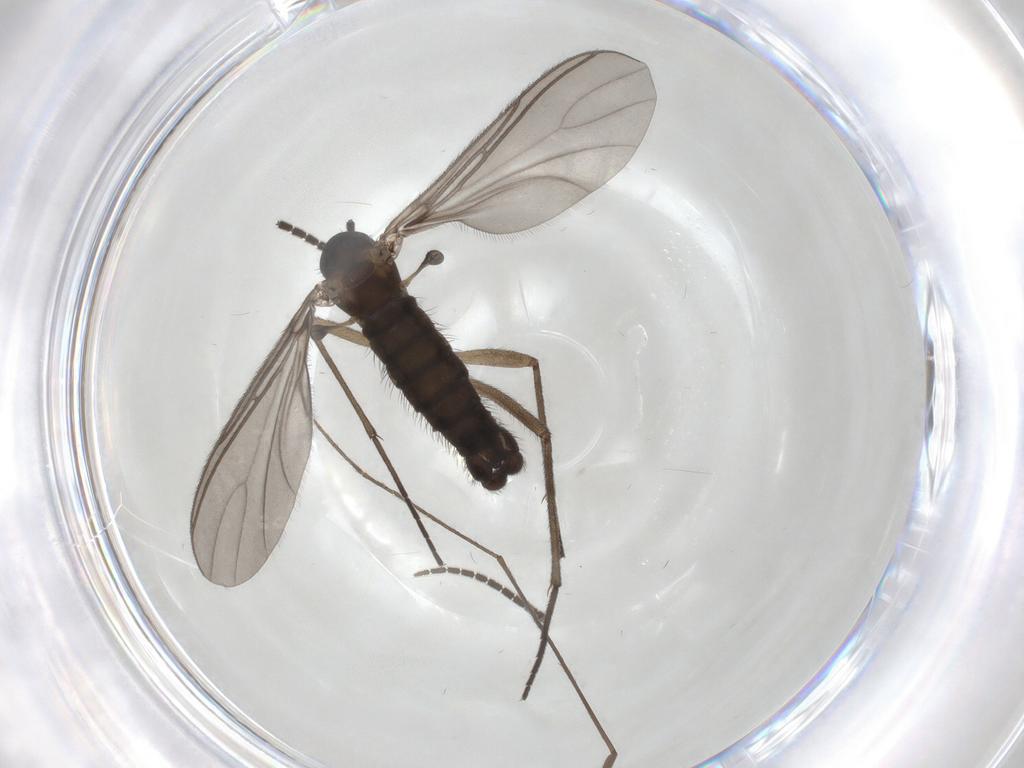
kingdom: Animalia
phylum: Arthropoda
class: Insecta
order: Diptera
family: Sciaridae
